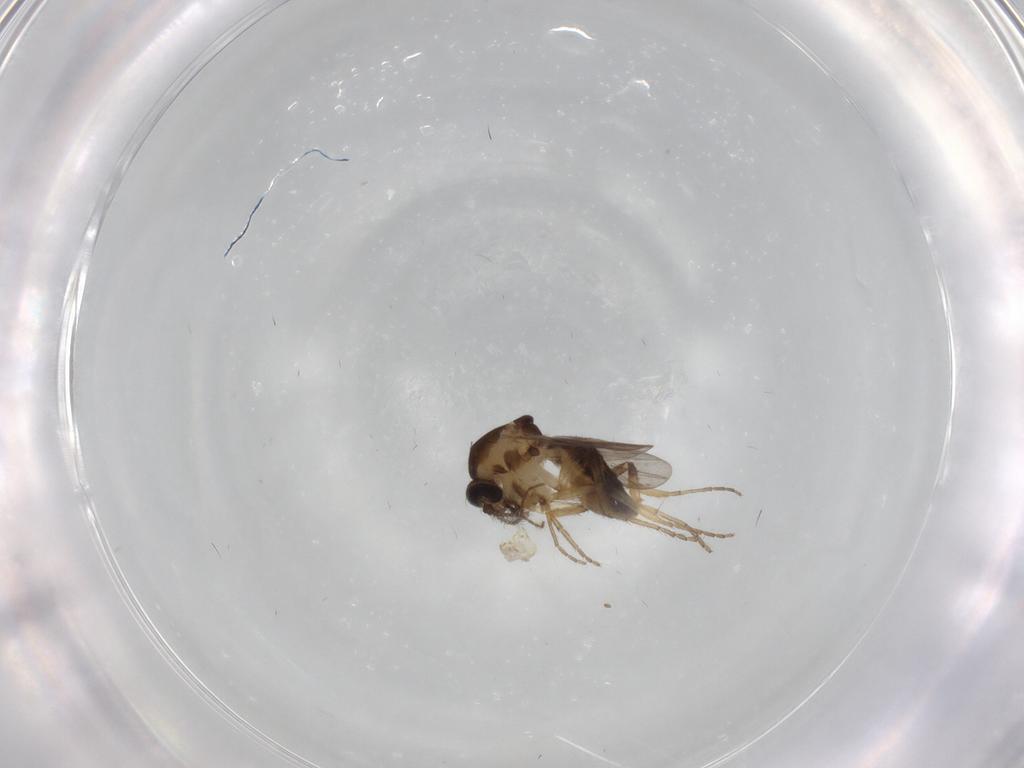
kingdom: Animalia
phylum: Arthropoda
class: Insecta
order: Diptera
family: Ceratopogonidae
